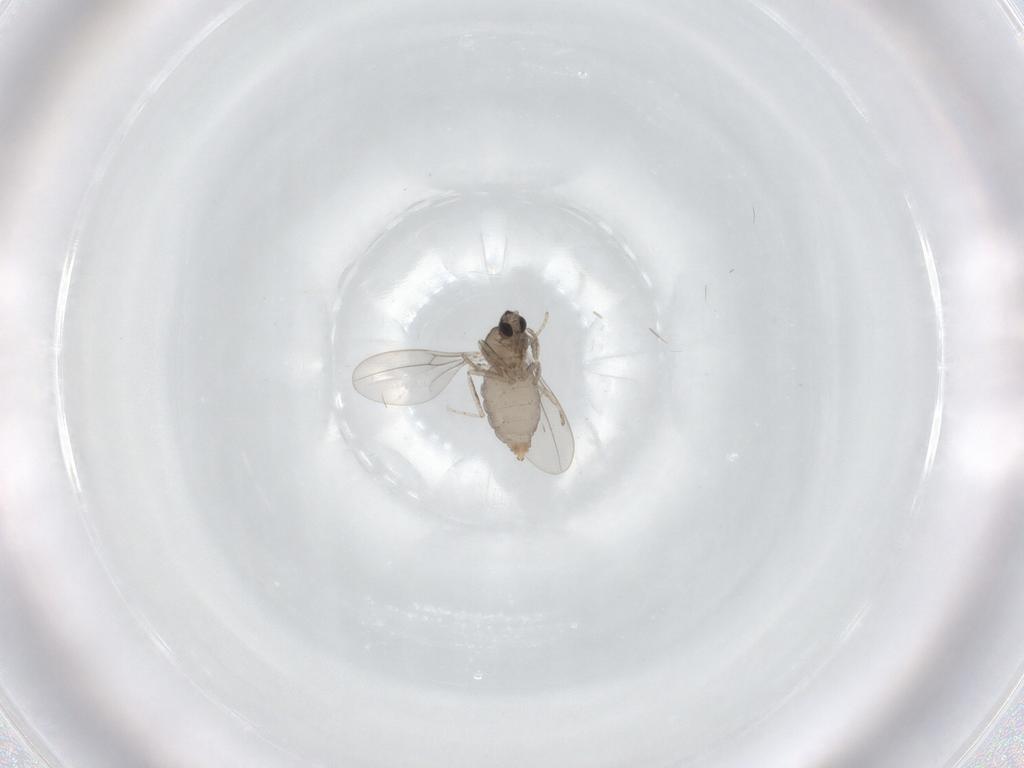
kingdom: Animalia
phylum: Arthropoda
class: Insecta
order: Diptera
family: Cecidomyiidae
